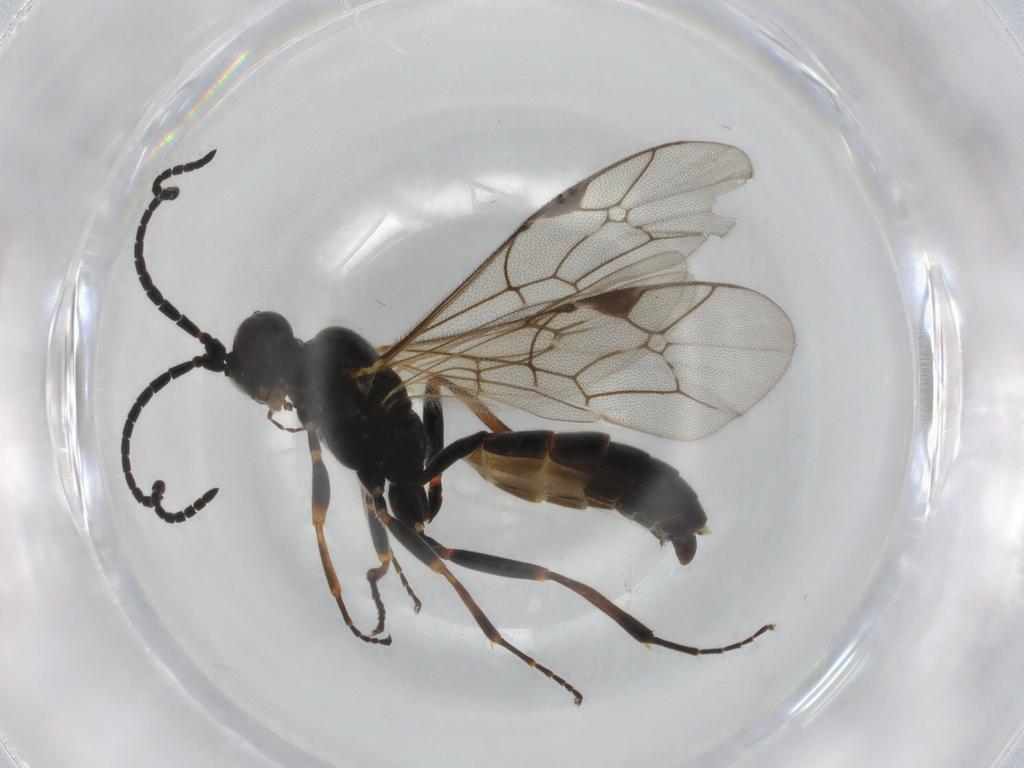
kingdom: Animalia
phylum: Arthropoda
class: Insecta
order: Hymenoptera
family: Ichneumonidae
